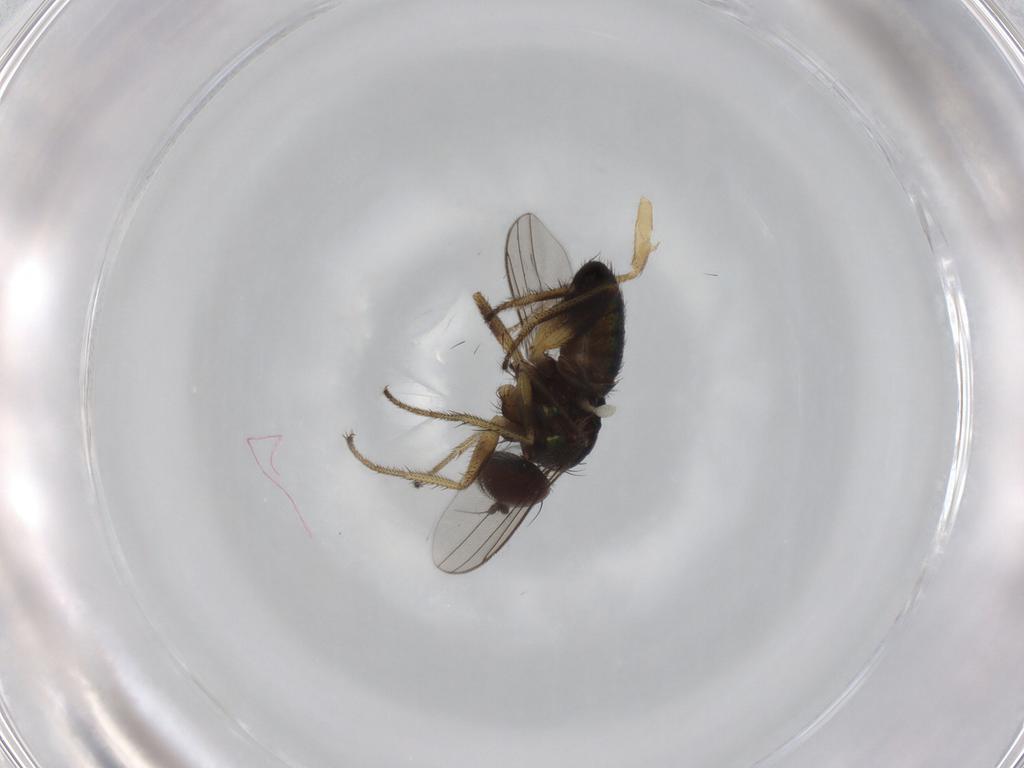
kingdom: Animalia
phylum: Arthropoda
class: Insecta
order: Diptera
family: Dolichopodidae
